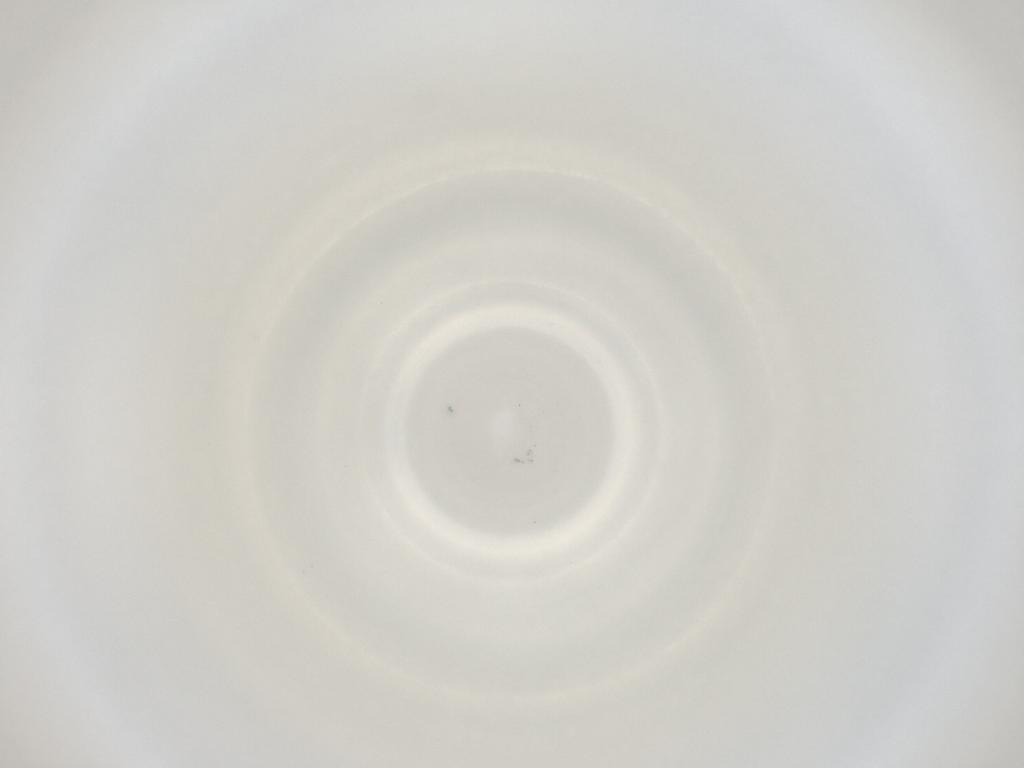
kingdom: Animalia
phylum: Arthropoda
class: Insecta
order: Diptera
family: Cecidomyiidae
